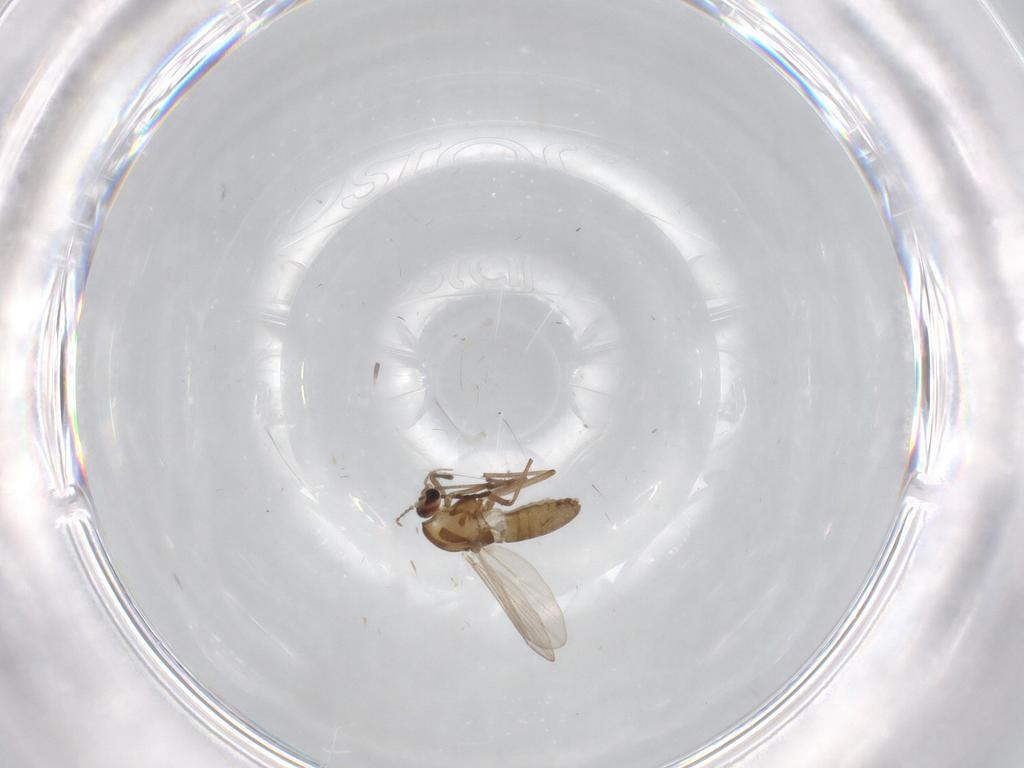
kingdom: Animalia
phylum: Arthropoda
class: Insecta
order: Diptera
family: Chironomidae
